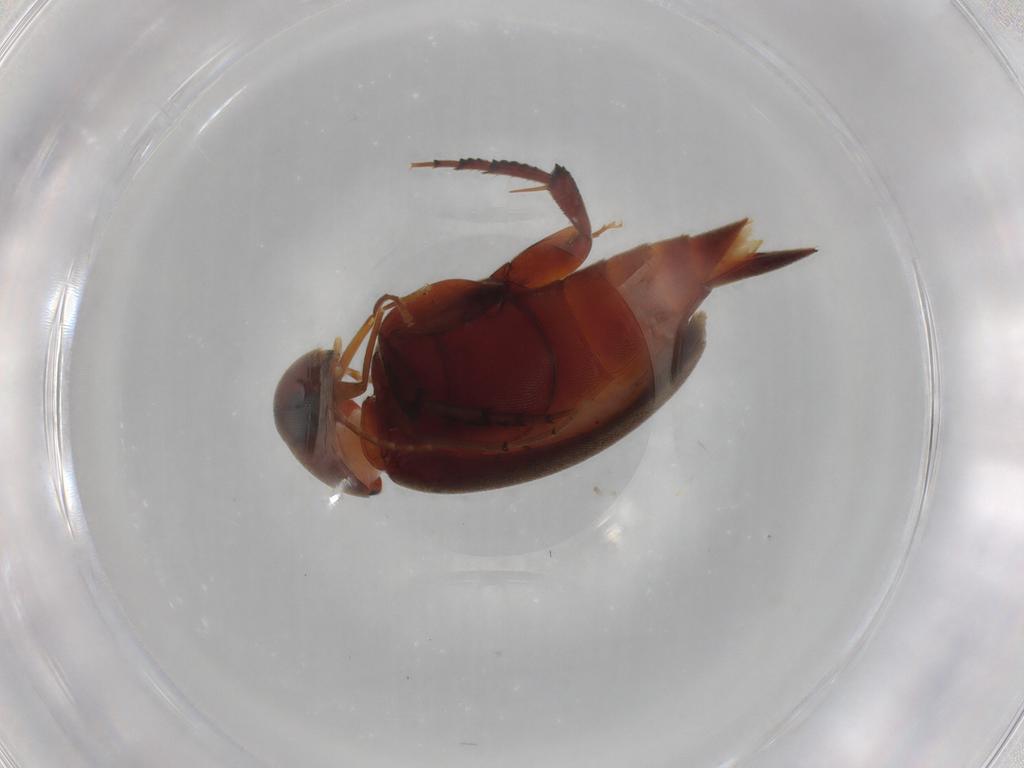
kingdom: Animalia
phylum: Arthropoda
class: Insecta
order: Coleoptera
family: Mordellidae
